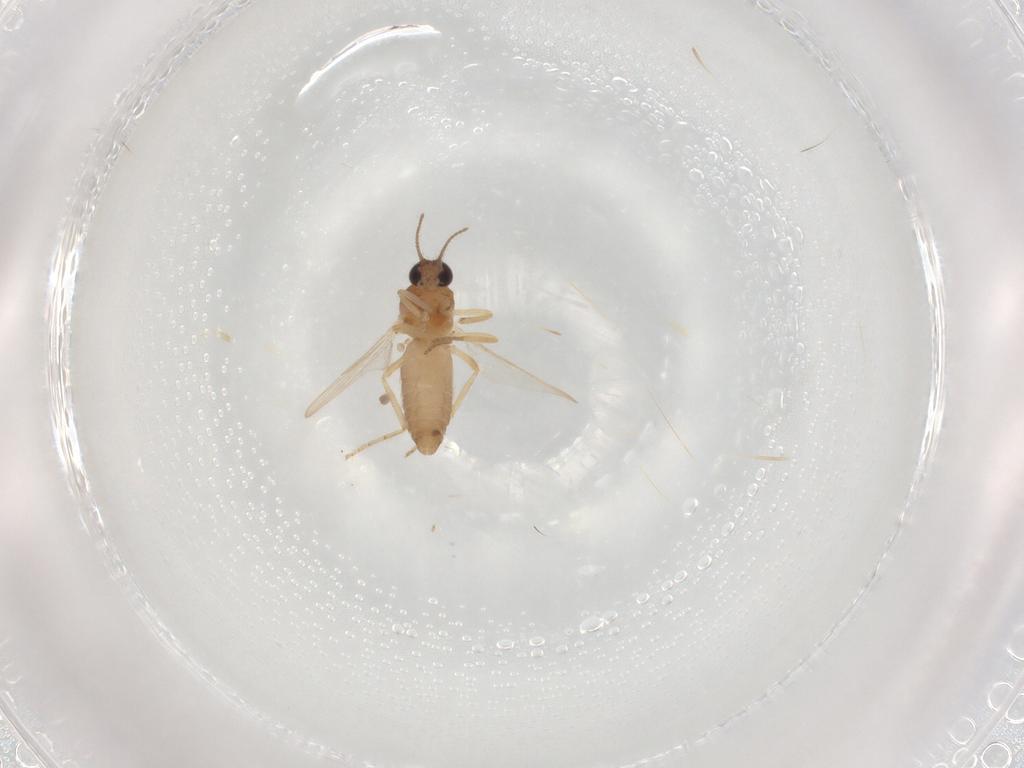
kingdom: Animalia
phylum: Arthropoda
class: Insecta
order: Diptera
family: Ceratopogonidae
